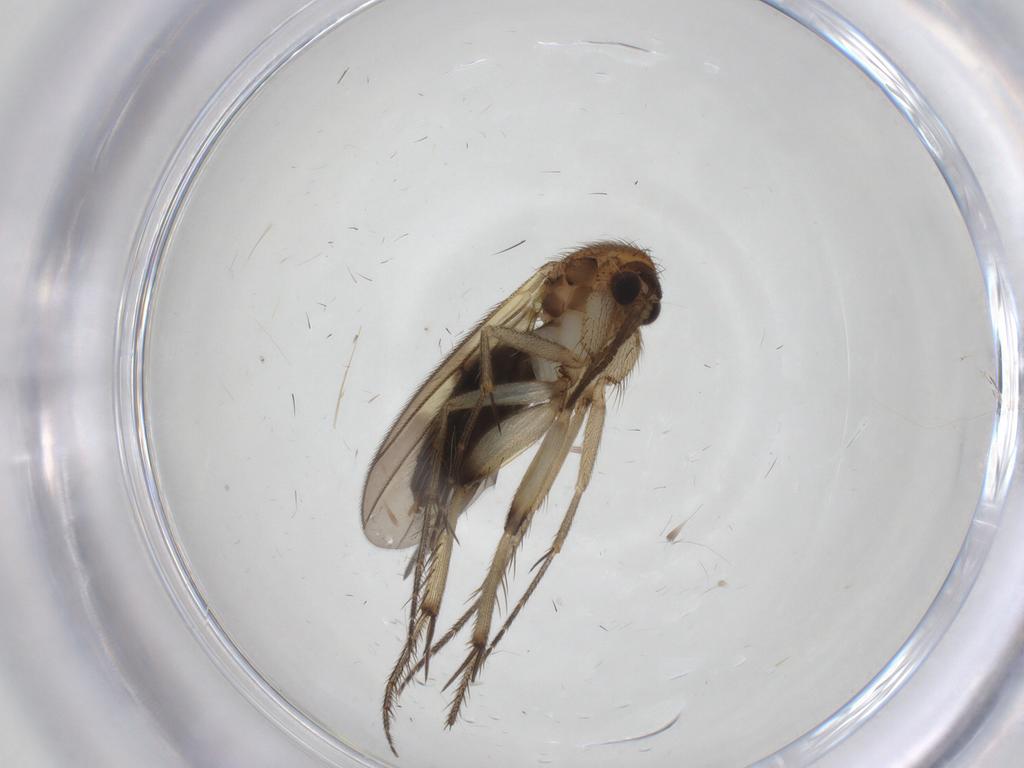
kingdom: Animalia
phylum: Arthropoda
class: Insecta
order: Diptera
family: Mycetophilidae
